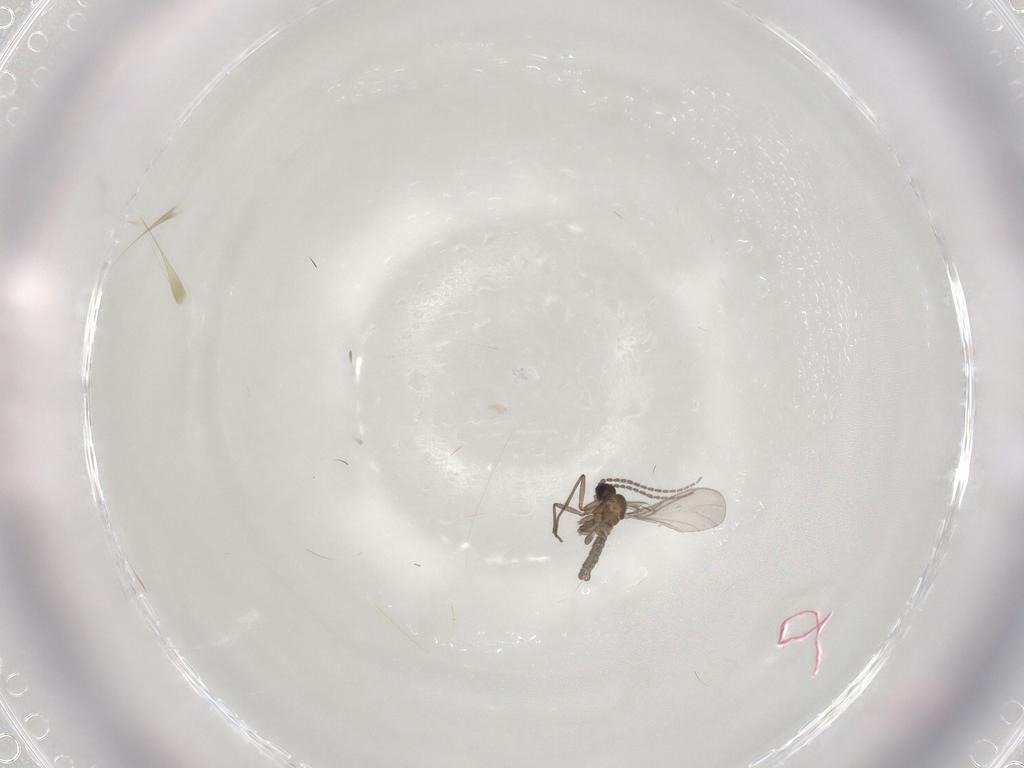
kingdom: Animalia
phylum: Arthropoda
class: Insecta
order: Diptera
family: Sciaridae
